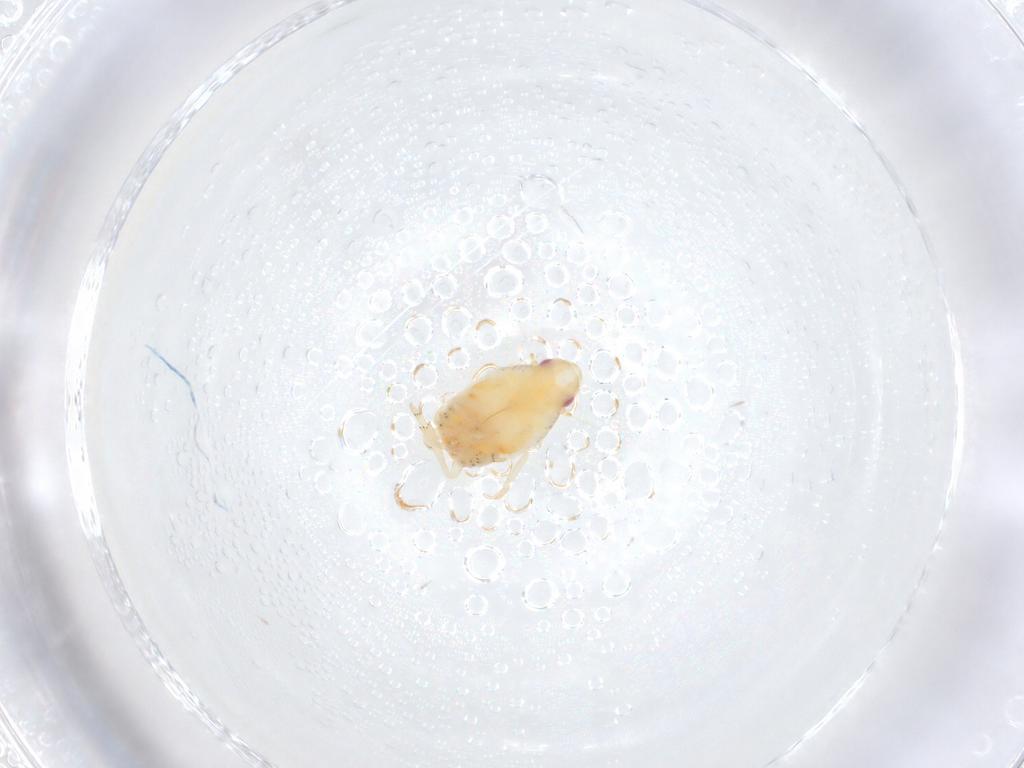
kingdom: Animalia
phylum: Arthropoda
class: Insecta
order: Hemiptera
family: Flatidae
